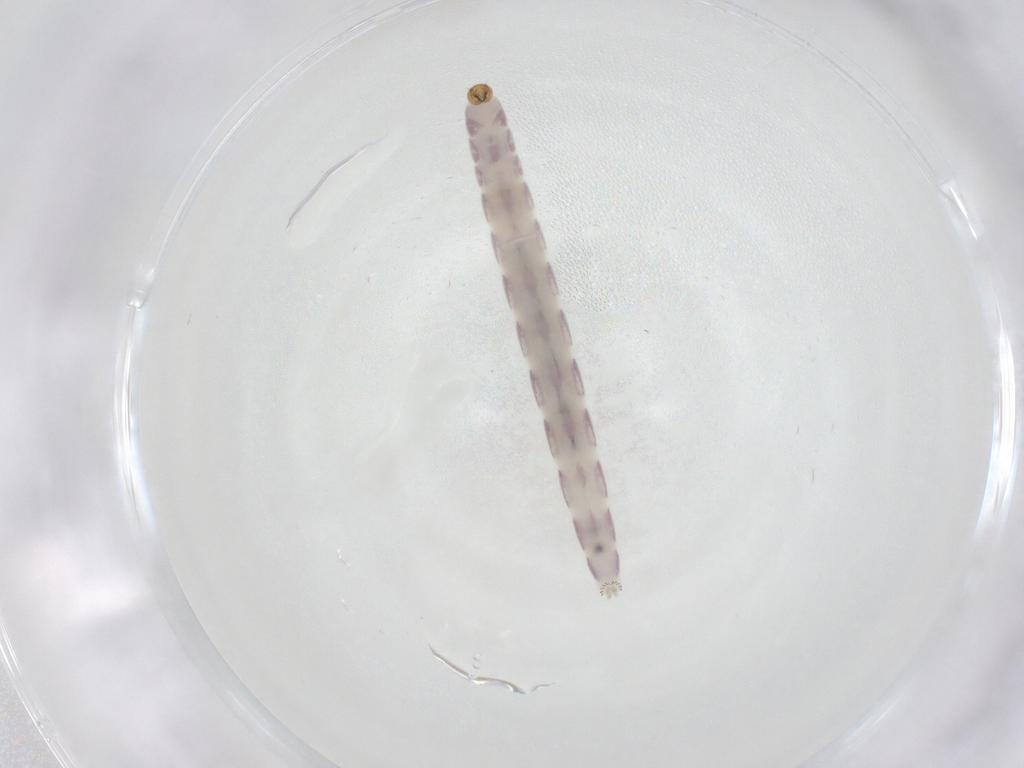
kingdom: Animalia
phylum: Arthropoda
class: Insecta
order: Diptera
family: Chironomidae
